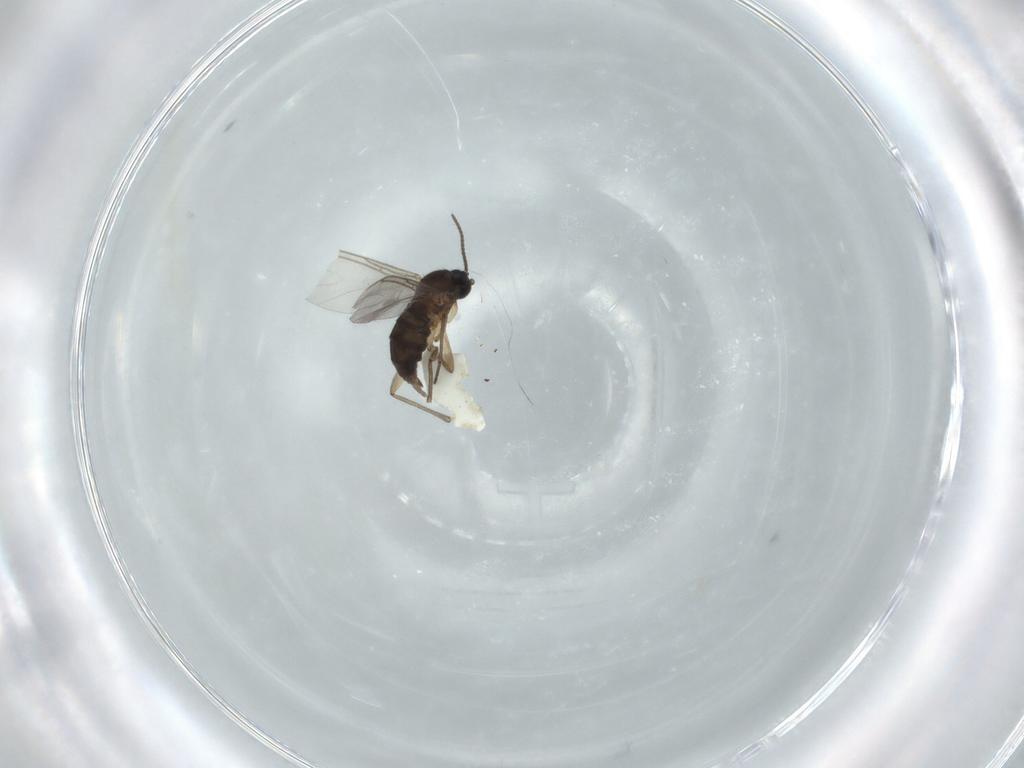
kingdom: Animalia
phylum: Arthropoda
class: Insecta
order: Diptera
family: Sciaridae
